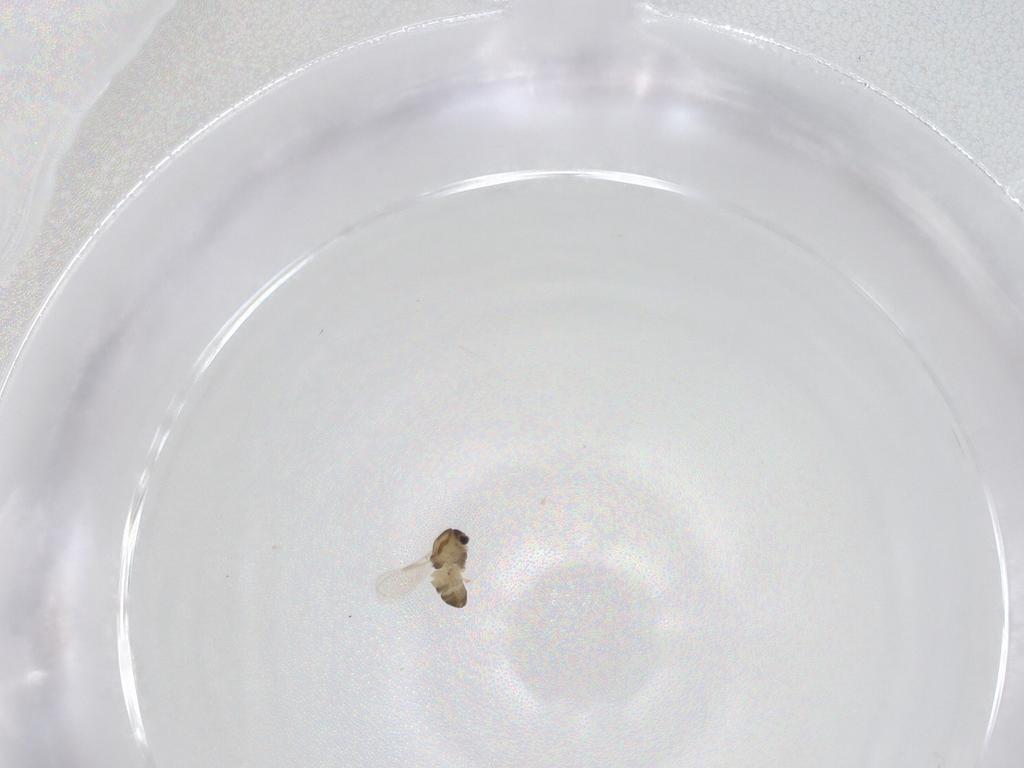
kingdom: Animalia
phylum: Arthropoda
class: Insecta
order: Diptera
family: Chironomidae
